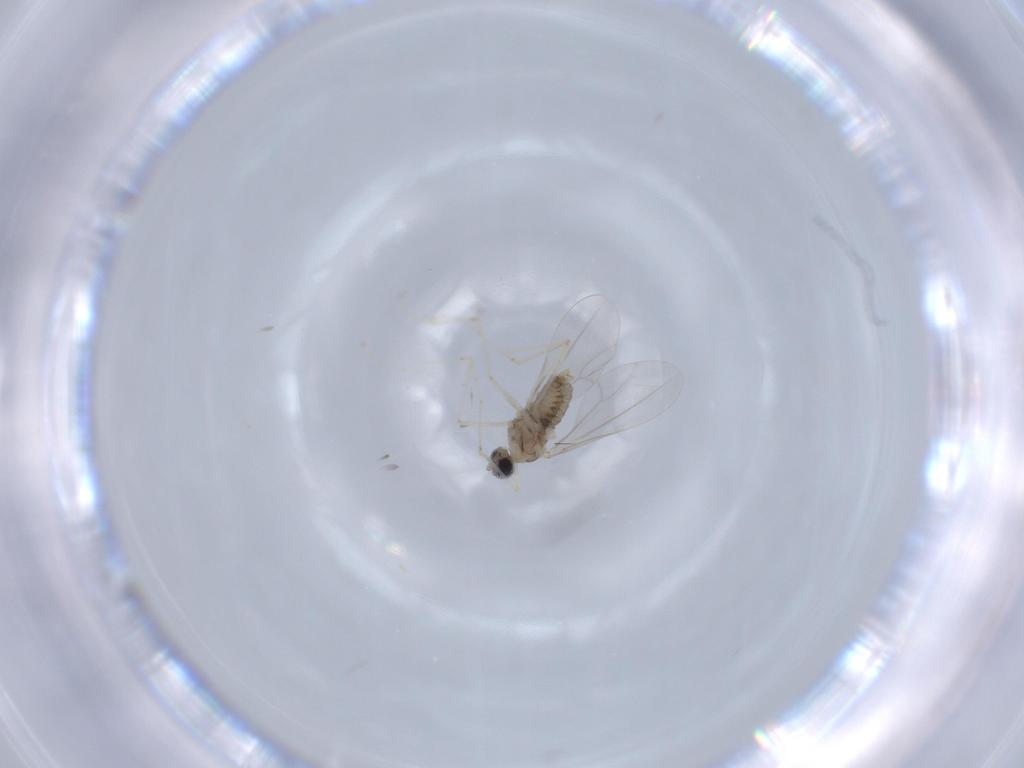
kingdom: Animalia
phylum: Arthropoda
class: Insecta
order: Diptera
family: Cecidomyiidae
